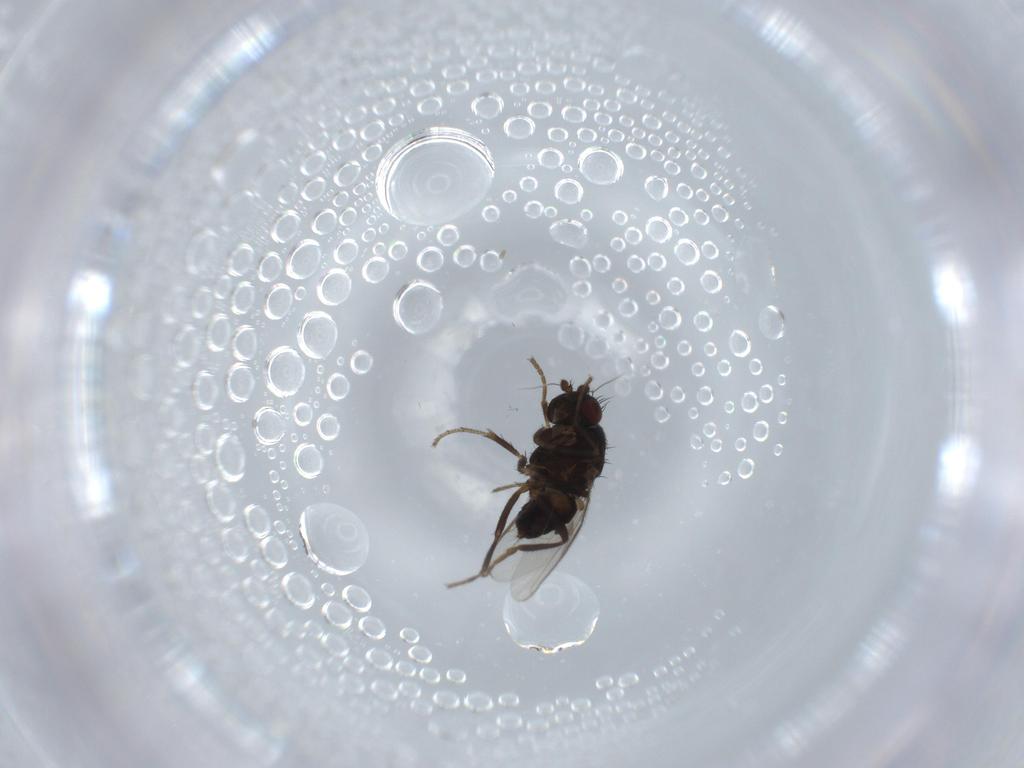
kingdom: Animalia
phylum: Arthropoda
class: Insecta
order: Diptera
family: Sphaeroceridae
